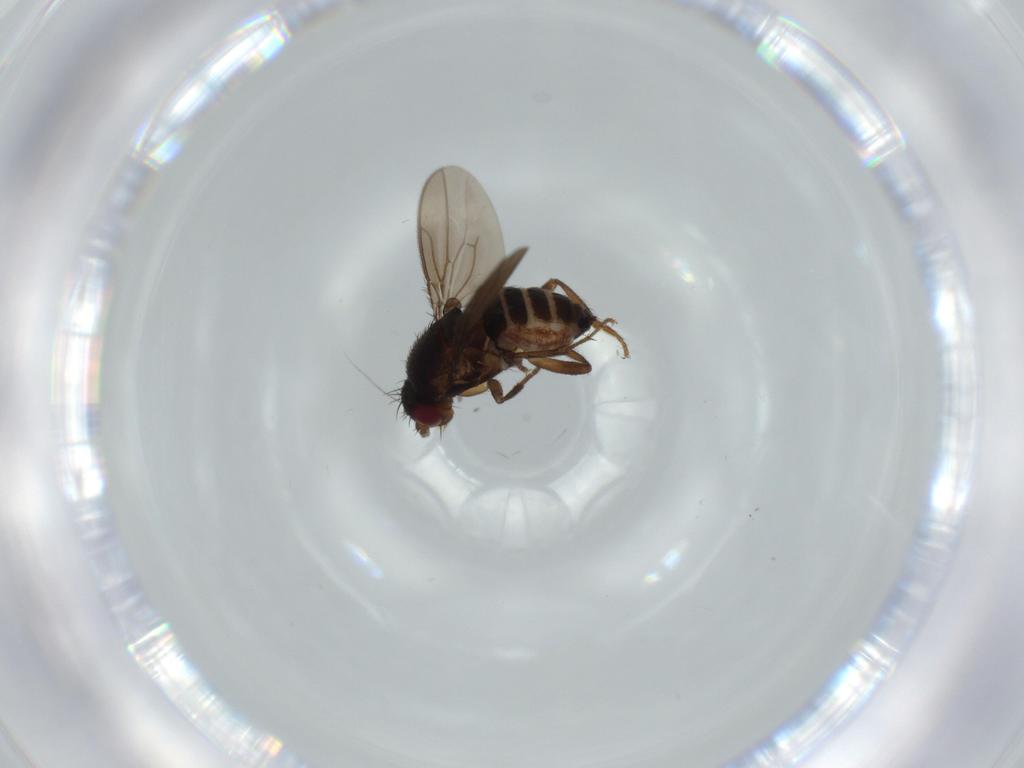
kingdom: Animalia
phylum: Arthropoda
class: Insecta
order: Diptera
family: Sphaeroceridae
